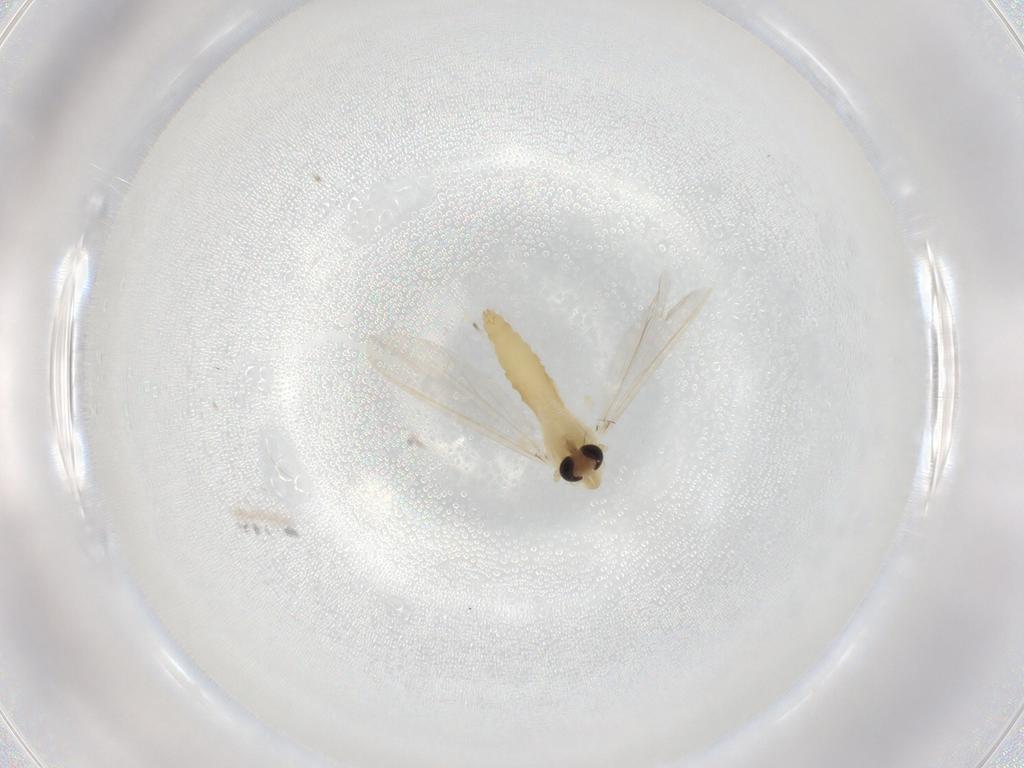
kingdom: Animalia
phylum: Arthropoda
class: Insecta
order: Diptera
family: Chironomidae
